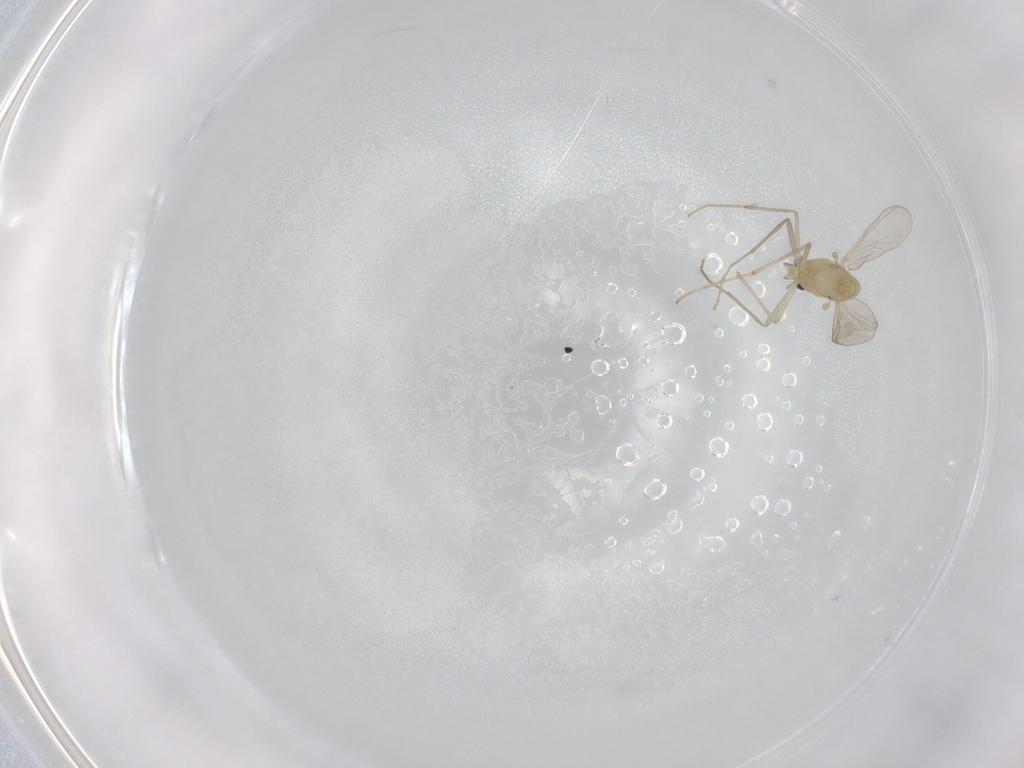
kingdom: Animalia
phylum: Arthropoda
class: Insecta
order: Diptera
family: Chironomidae
